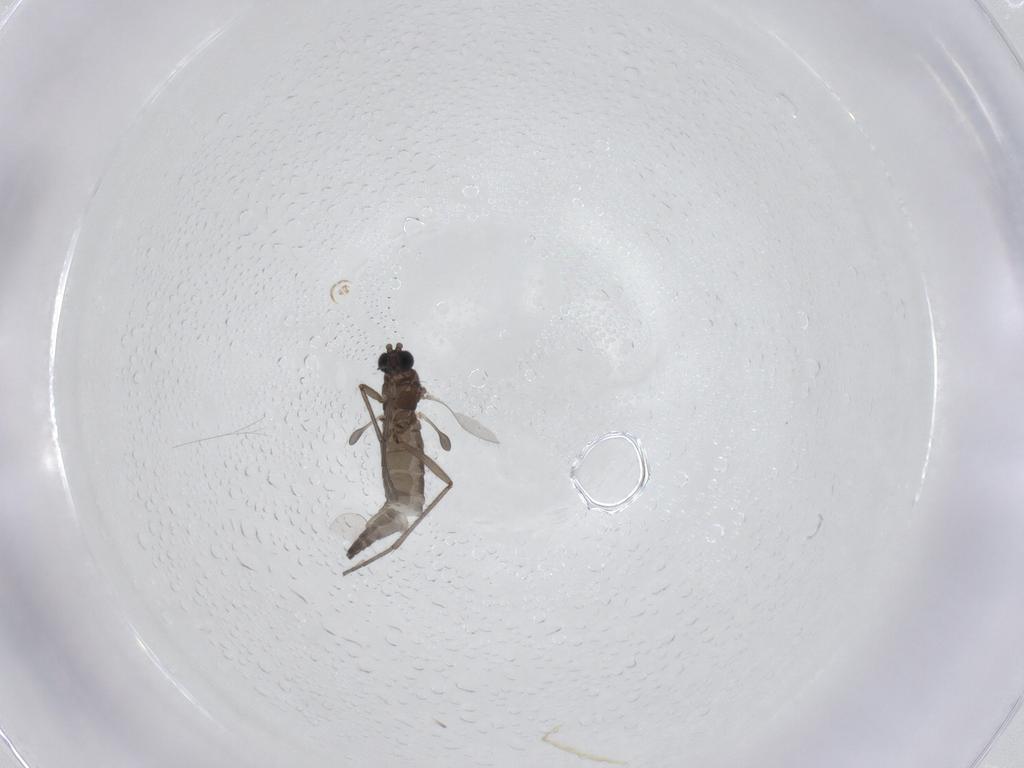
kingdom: Animalia
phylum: Arthropoda
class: Insecta
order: Diptera
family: Sciaridae
